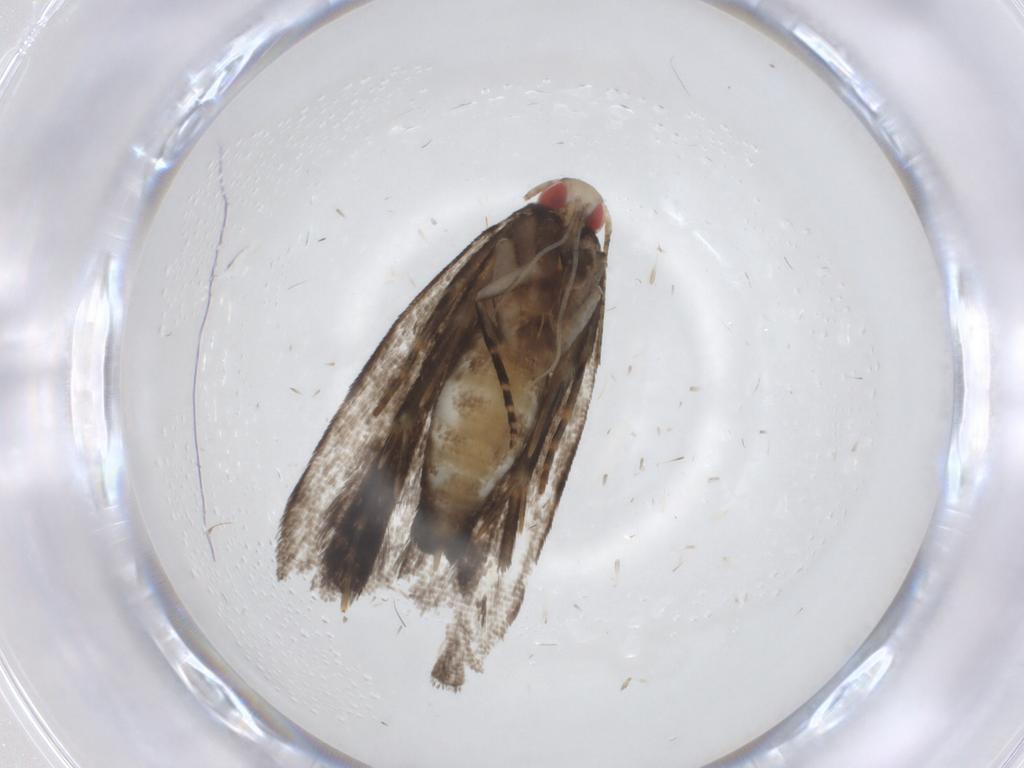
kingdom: Animalia
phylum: Arthropoda
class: Insecta
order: Lepidoptera
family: Gelechiidae
